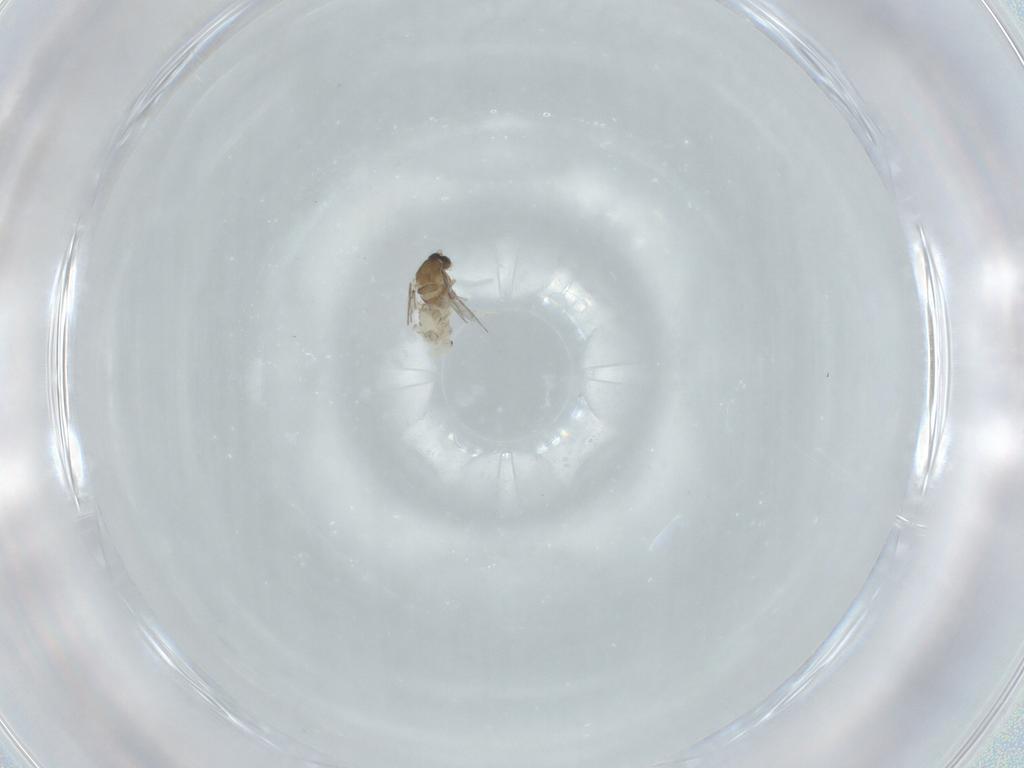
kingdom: Animalia
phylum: Arthropoda
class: Insecta
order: Diptera
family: Cecidomyiidae
